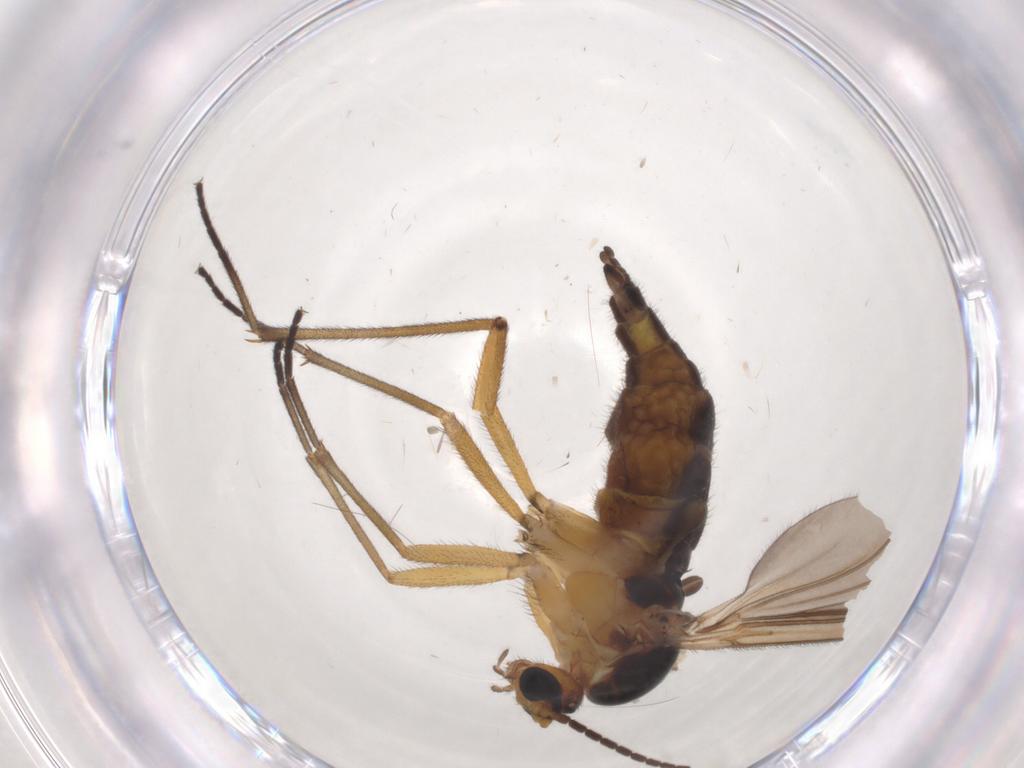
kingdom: Animalia
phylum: Arthropoda
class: Insecta
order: Diptera
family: Sciaridae
